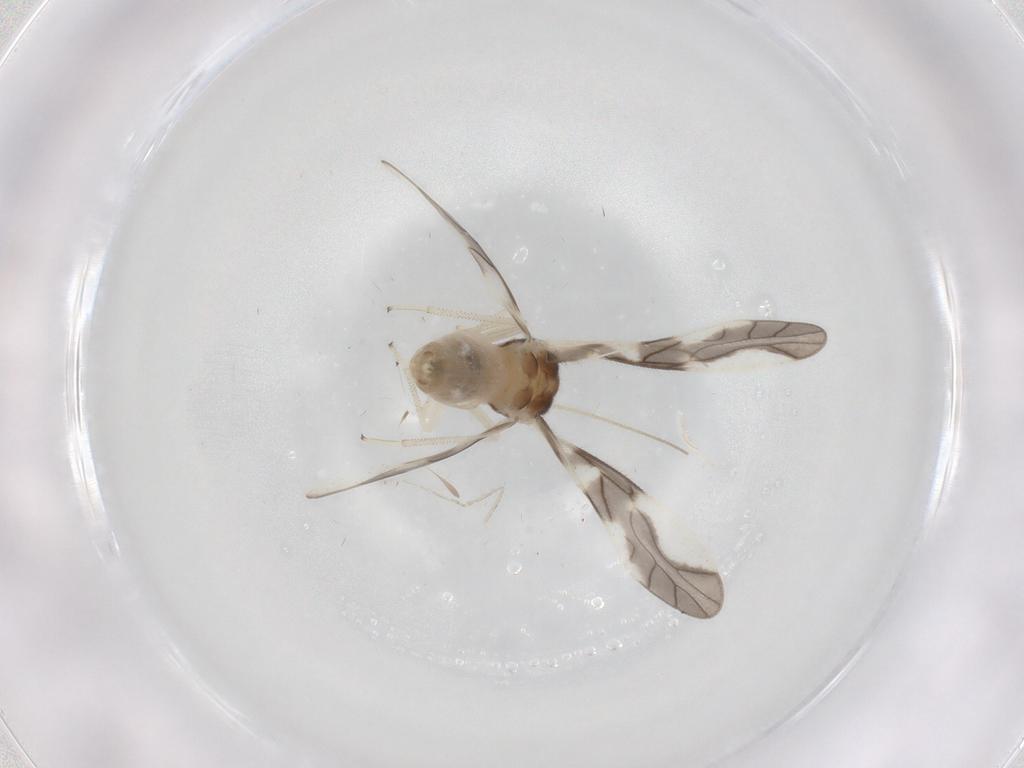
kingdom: Animalia
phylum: Arthropoda
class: Insecta
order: Psocodea
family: Caeciliusidae
